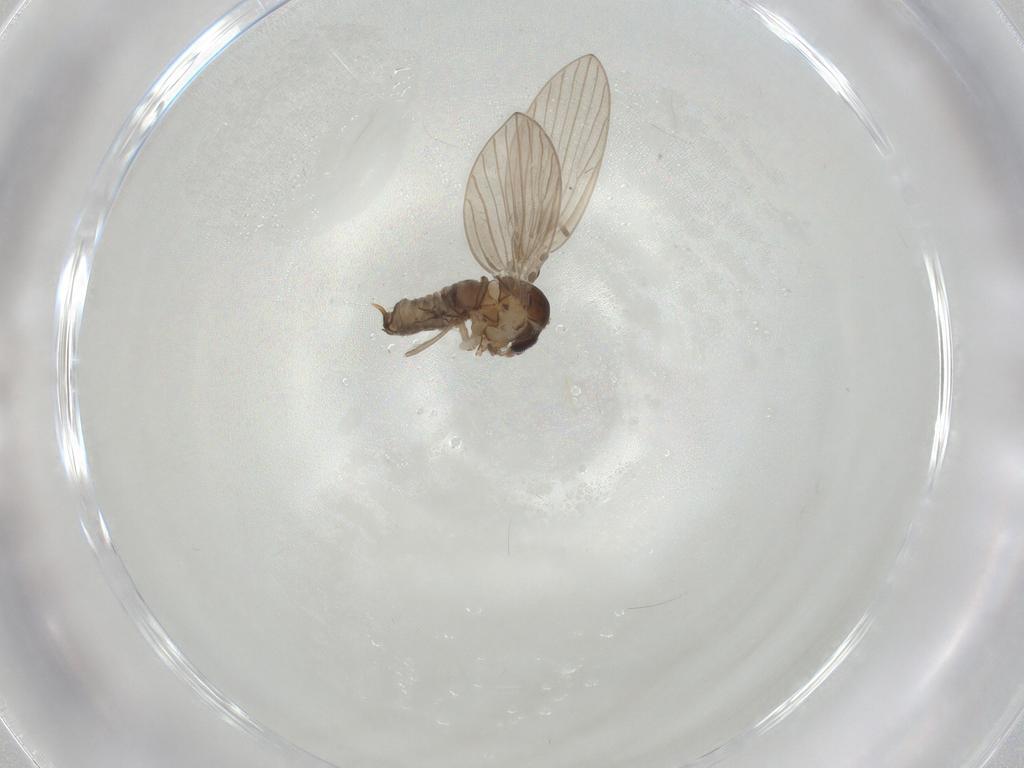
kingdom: Animalia
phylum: Arthropoda
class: Insecta
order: Diptera
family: Psychodidae
